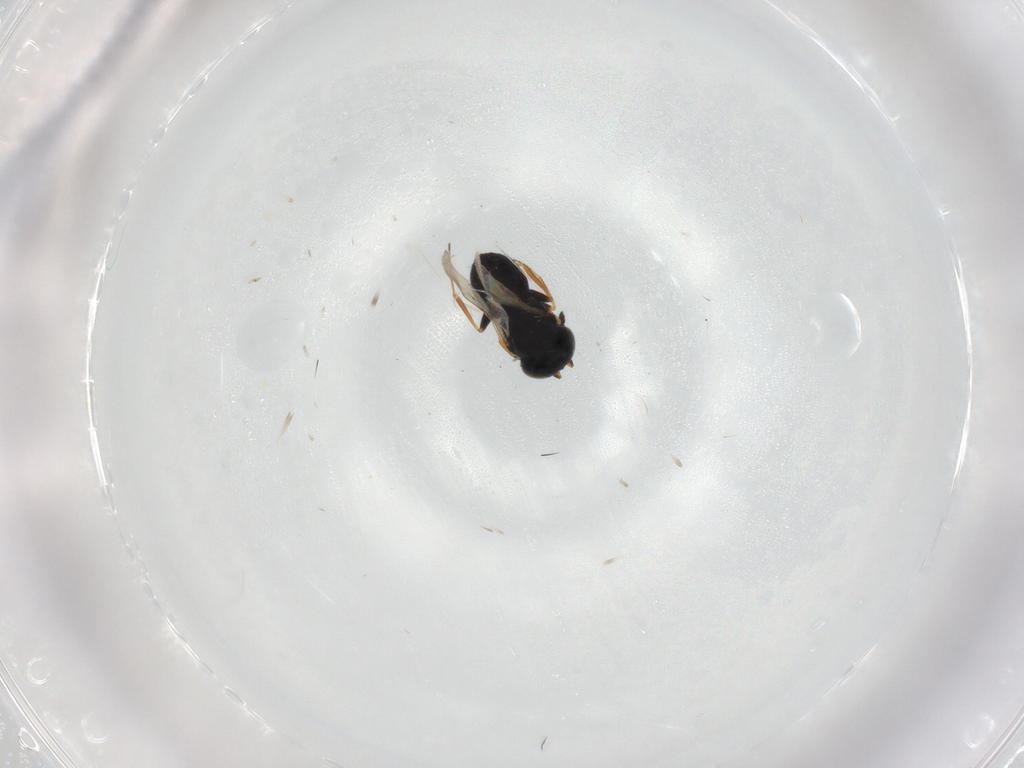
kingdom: Animalia
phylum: Arthropoda
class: Insecta
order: Hymenoptera
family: Scelionidae
